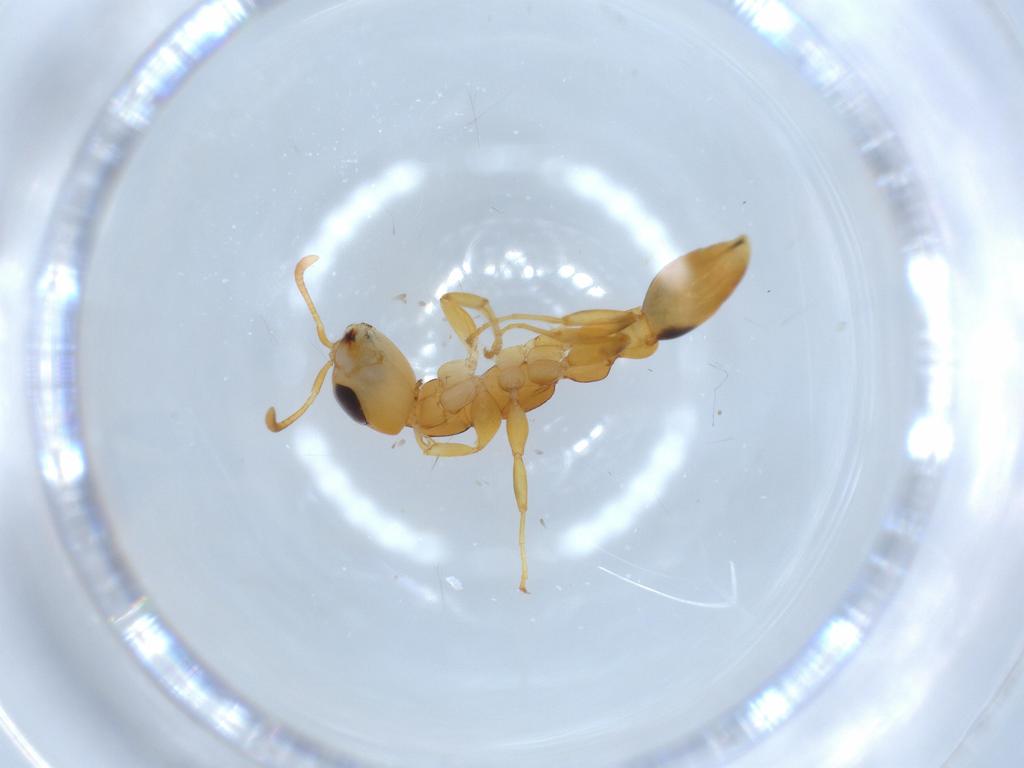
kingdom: Animalia
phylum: Arthropoda
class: Insecta
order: Hymenoptera
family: Formicidae
